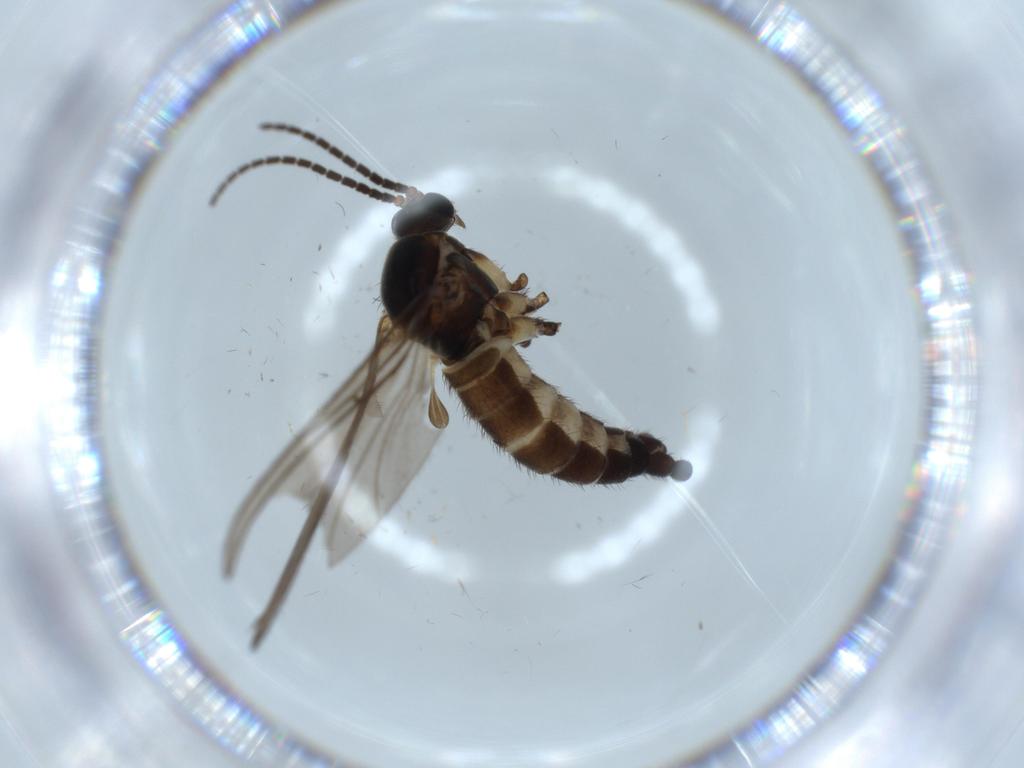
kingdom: Animalia
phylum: Arthropoda
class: Insecta
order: Diptera
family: Sciaridae
